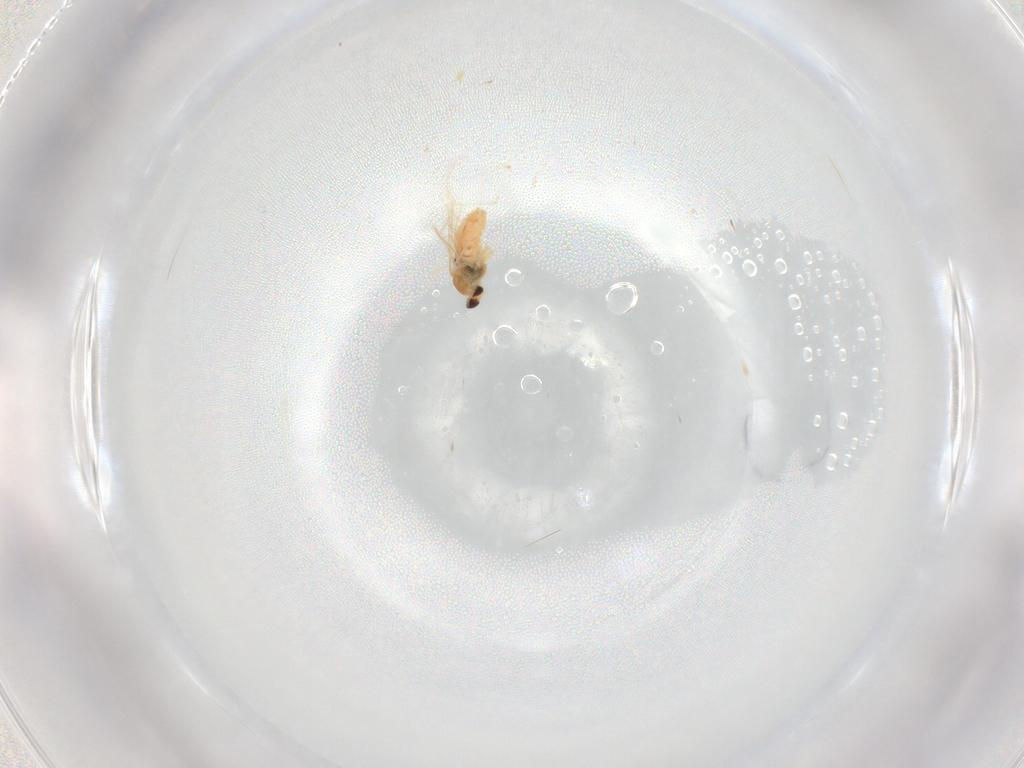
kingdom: Animalia
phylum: Arthropoda
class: Insecta
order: Diptera
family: Cecidomyiidae
